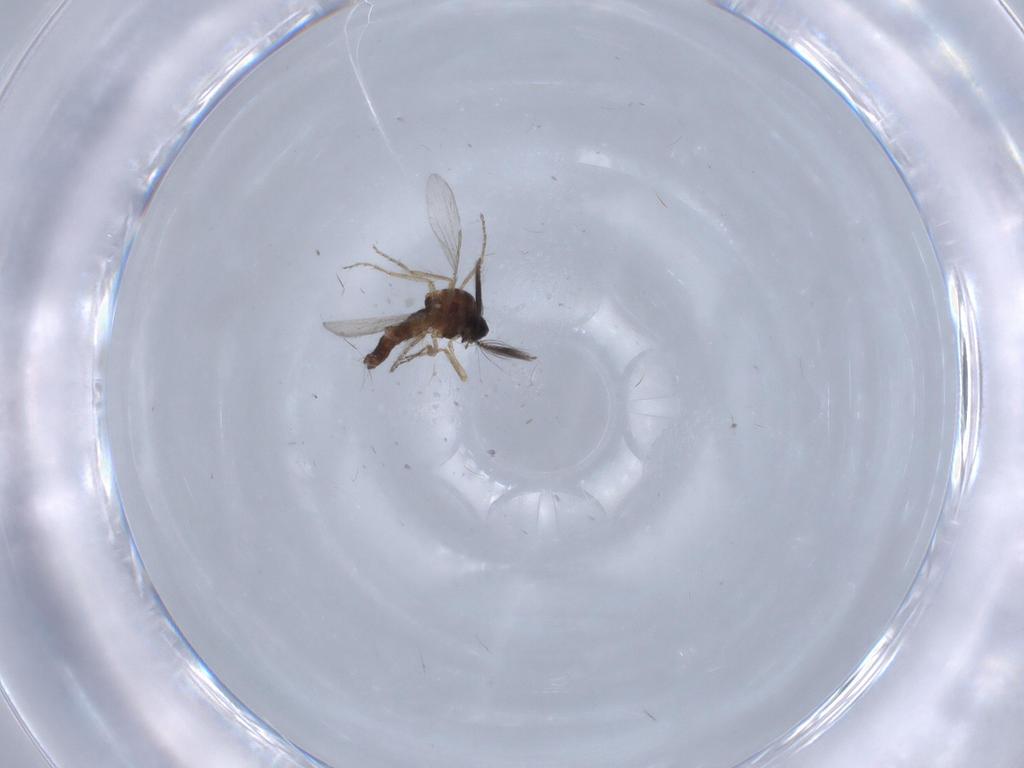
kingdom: Animalia
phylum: Arthropoda
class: Insecta
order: Diptera
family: Ceratopogonidae
